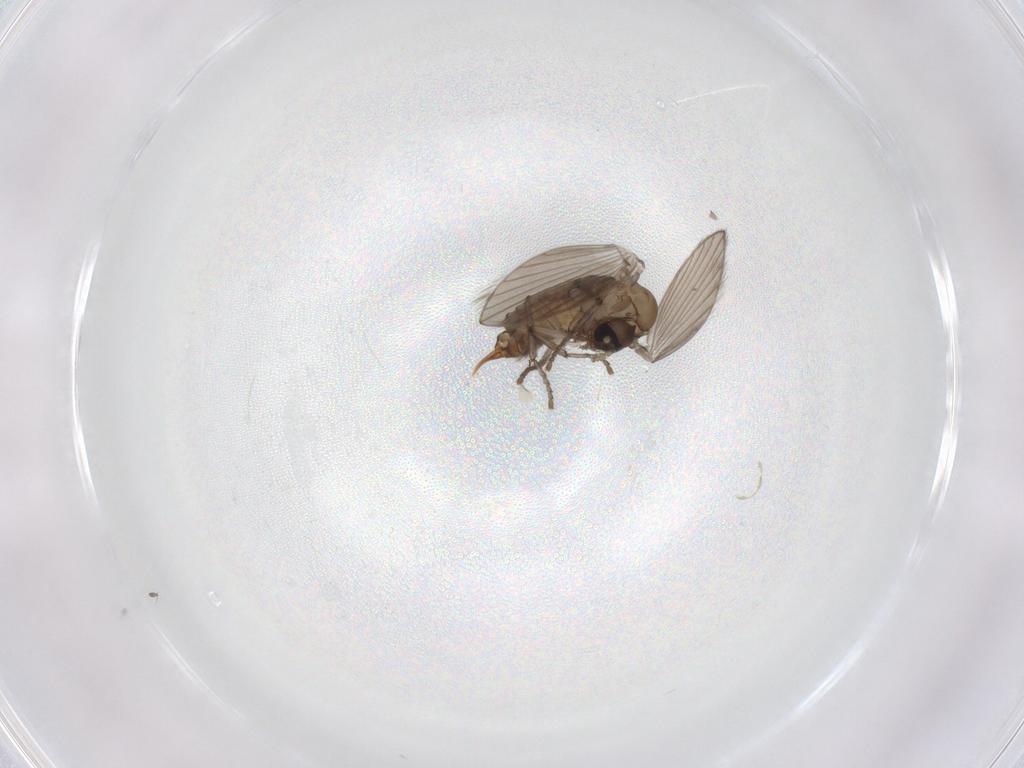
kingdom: Animalia
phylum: Arthropoda
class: Insecta
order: Diptera
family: Psychodidae
